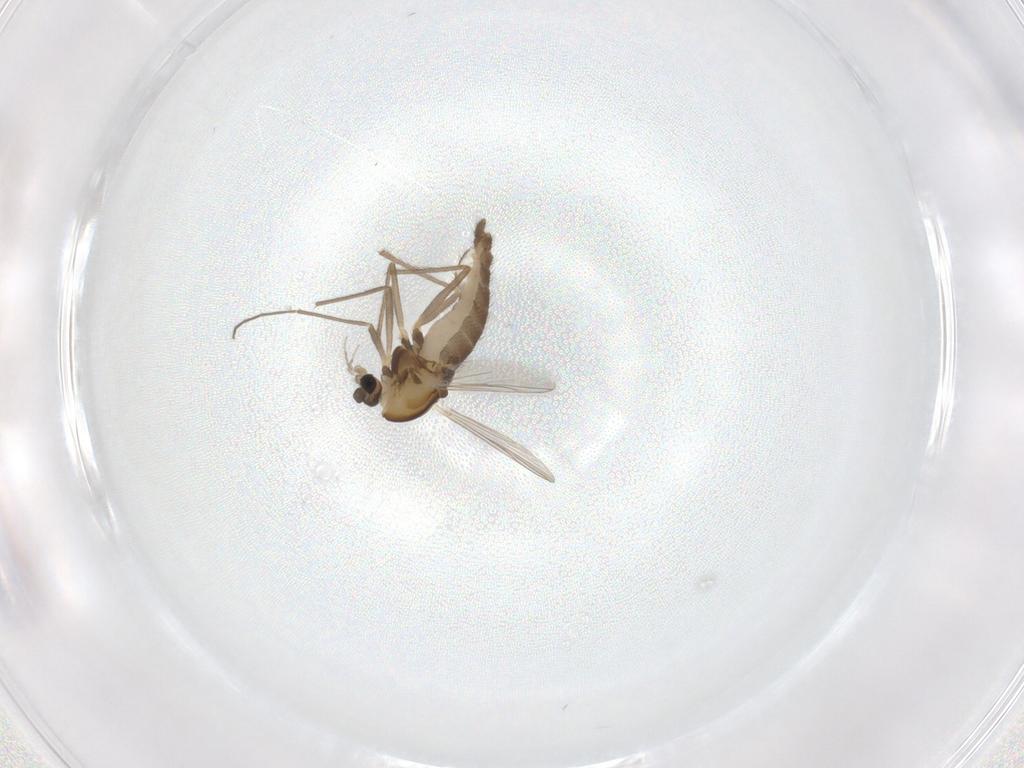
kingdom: Animalia
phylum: Arthropoda
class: Insecta
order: Diptera
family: Chironomidae
